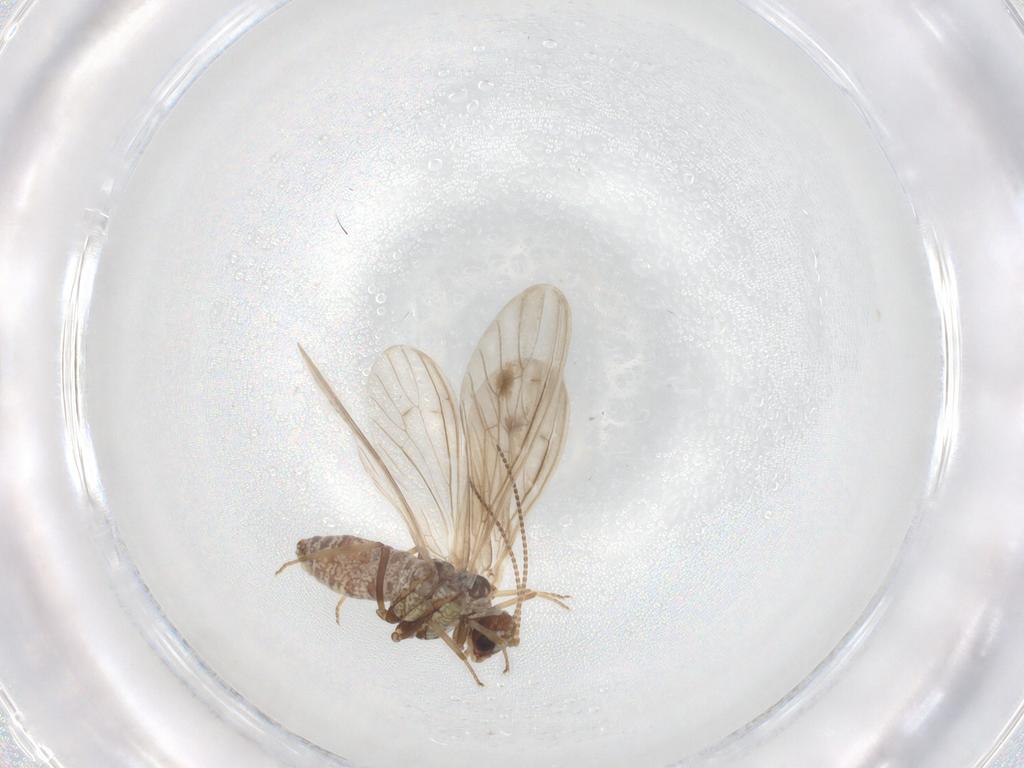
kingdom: Animalia
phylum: Arthropoda
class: Insecta
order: Neuroptera
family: Coniopterygidae
